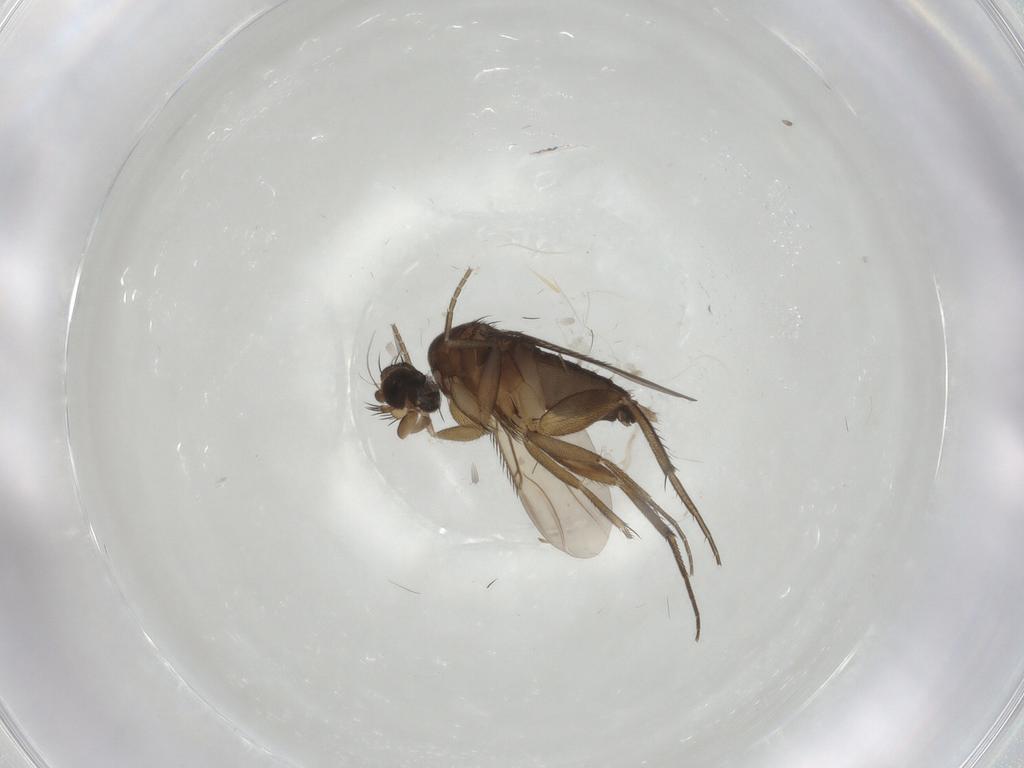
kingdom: Animalia
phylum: Arthropoda
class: Insecta
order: Diptera
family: Phoridae
